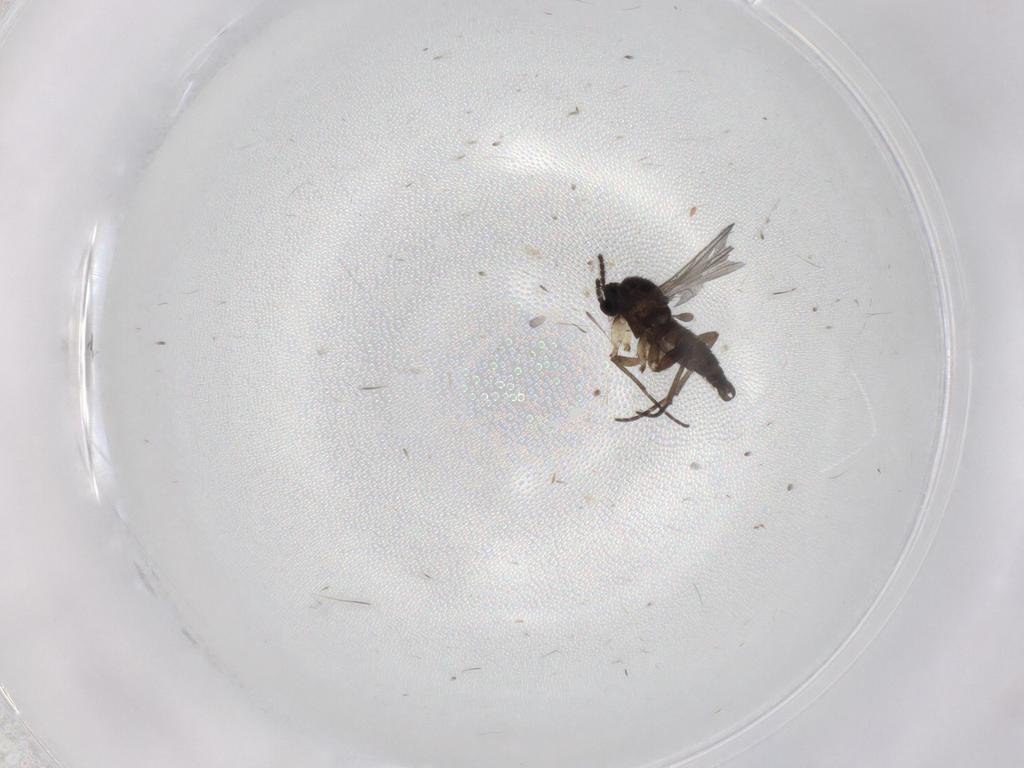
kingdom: Animalia
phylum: Arthropoda
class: Insecta
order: Diptera
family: Sciaridae
